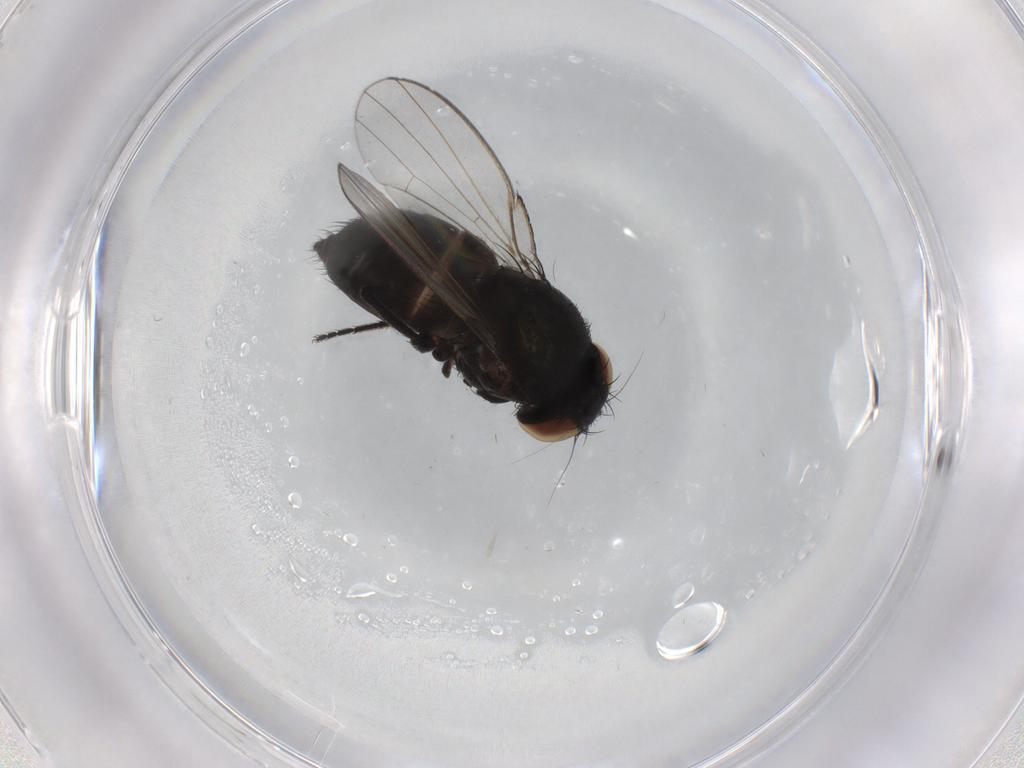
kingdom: Animalia
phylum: Arthropoda
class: Insecta
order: Diptera
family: Milichiidae
